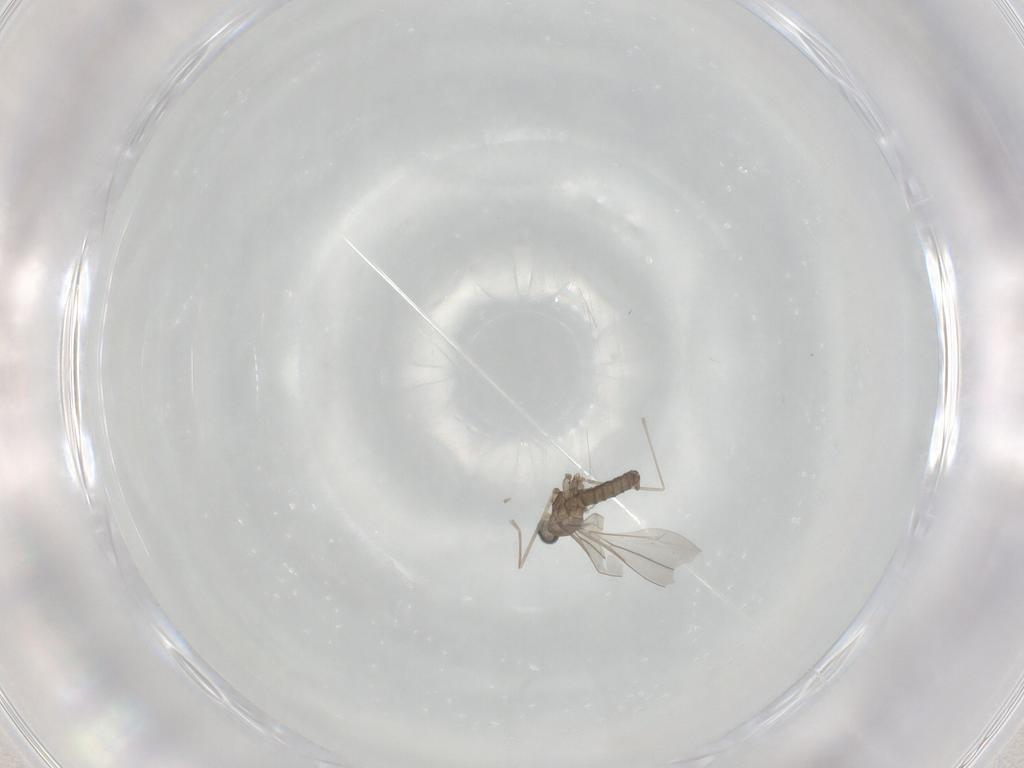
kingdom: Animalia
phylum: Arthropoda
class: Insecta
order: Diptera
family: Cecidomyiidae
